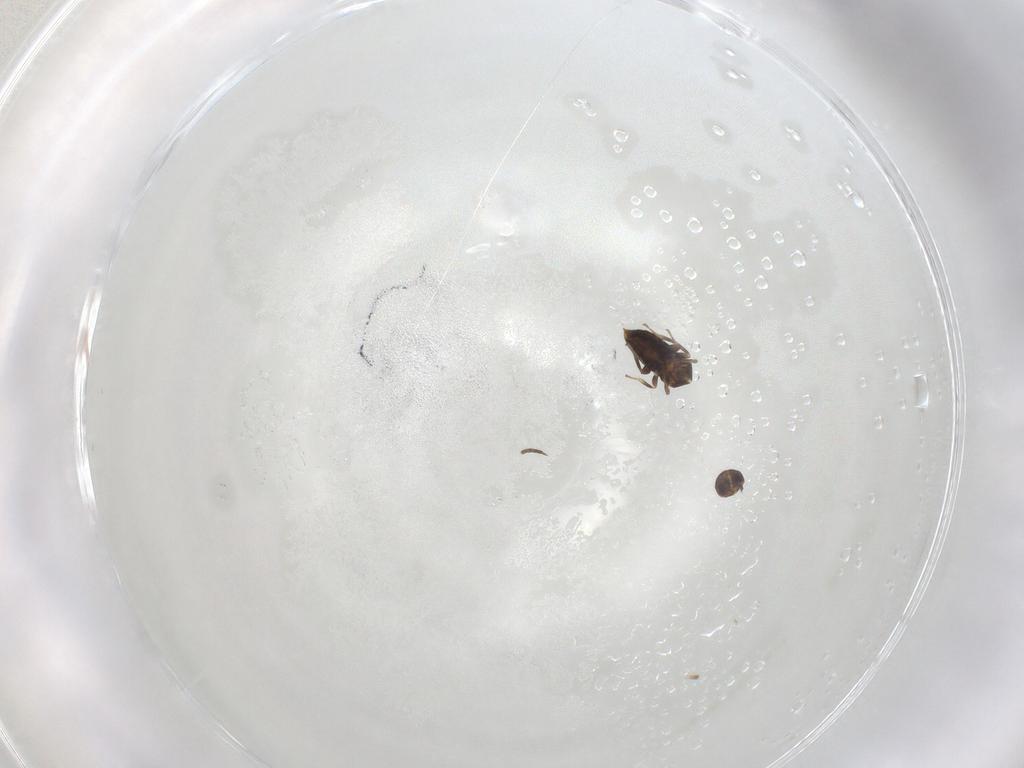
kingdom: Animalia
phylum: Arthropoda
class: Insecta
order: Hymenoptera
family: Aphelinidae
